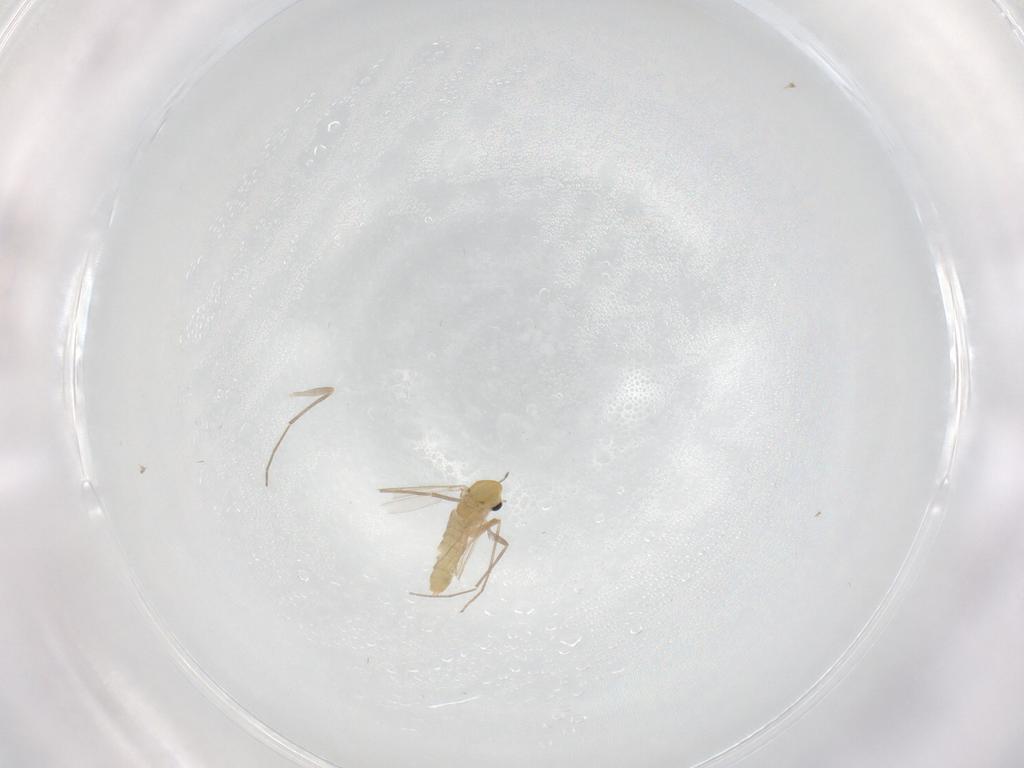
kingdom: Animalia
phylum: Arthropoda
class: Insecta
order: Diptera
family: Chironomidae
